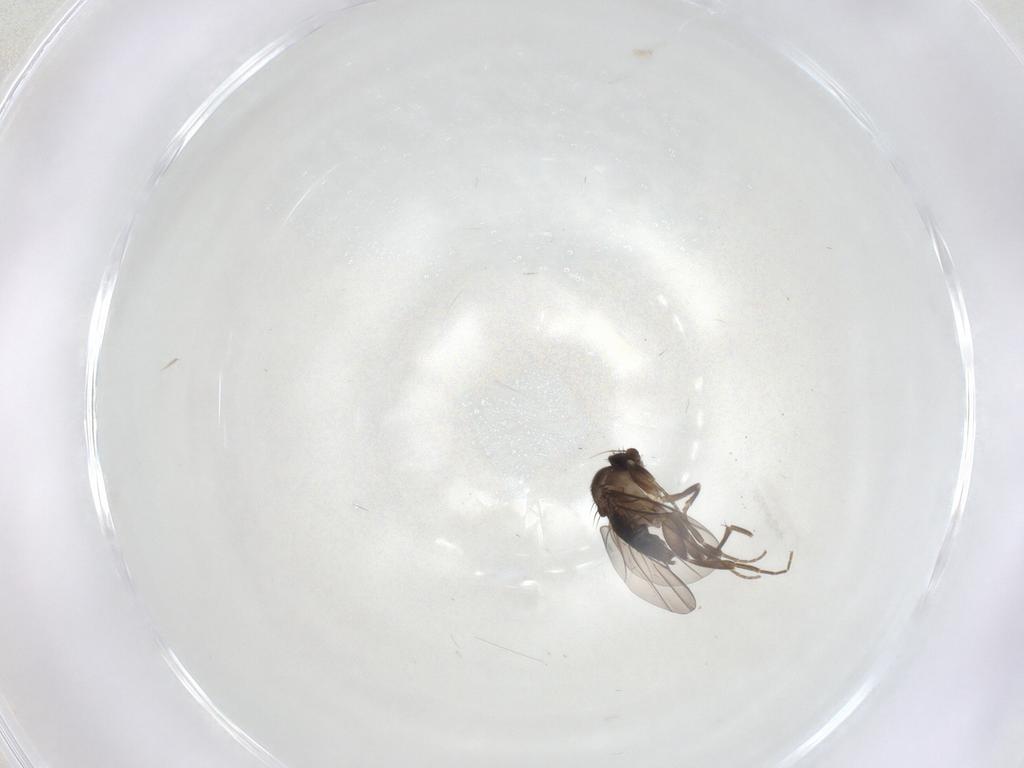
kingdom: Animalia
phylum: Arthropoda
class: Insecta
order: Diptera
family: Phoridae
